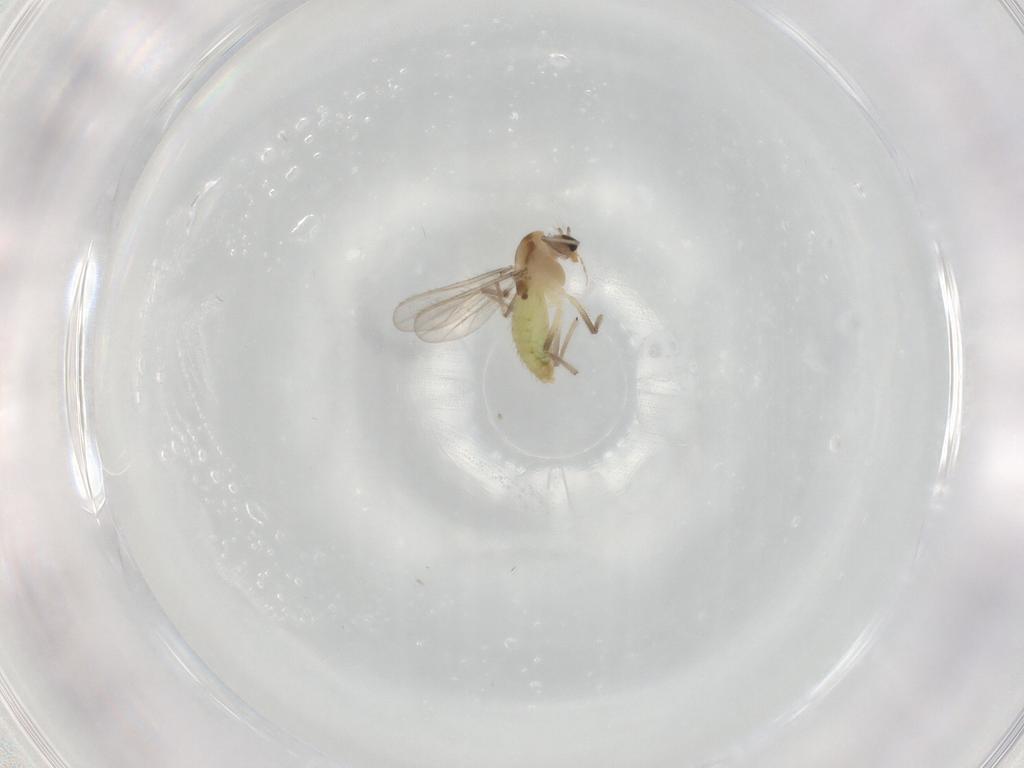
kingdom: Animalia
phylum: Arthropoda
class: Insecta
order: Diptera
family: Chironomidae
